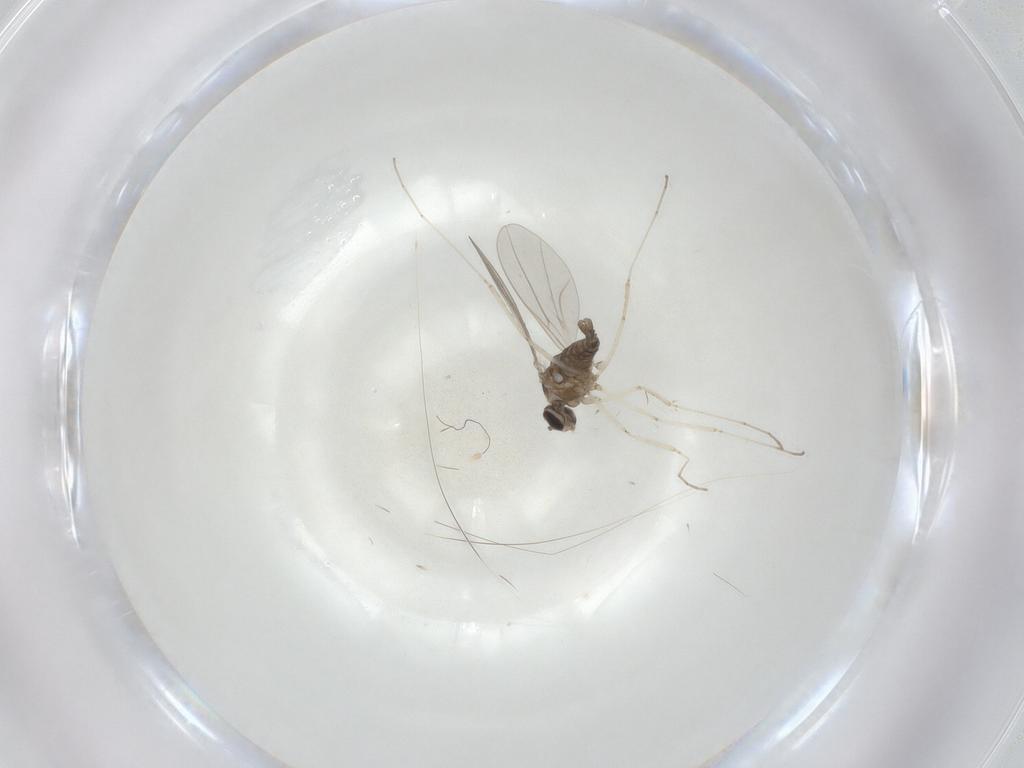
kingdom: Animalia
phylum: Arthropoda
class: Insecta
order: Diptera
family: Cecidomyiidae
